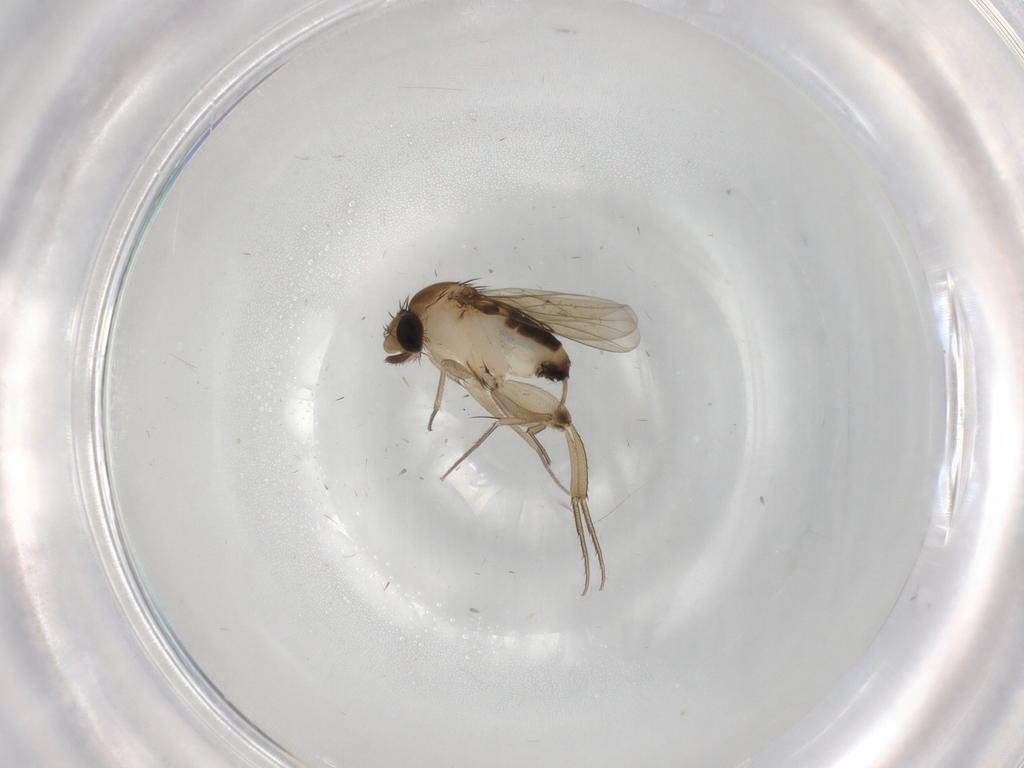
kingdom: Animalia
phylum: Arthropoda
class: Insecta
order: Diptera
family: Phoridae
